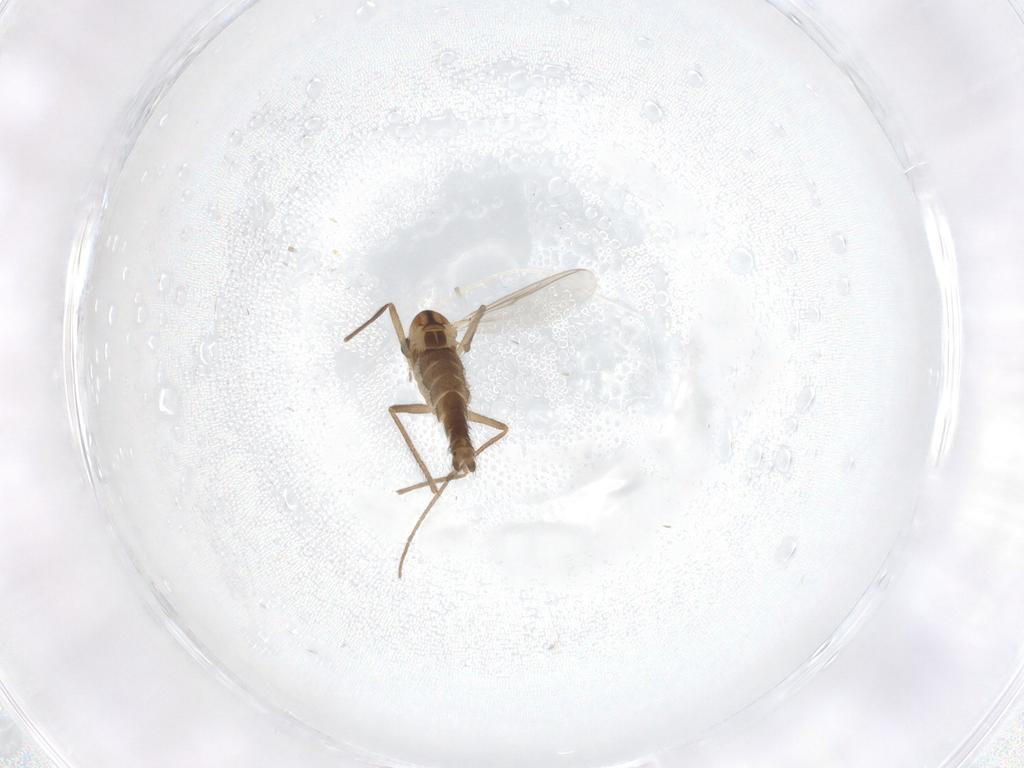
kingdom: Animalia
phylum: Arthropoda
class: Insecta
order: Diptera
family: Chironomidae
